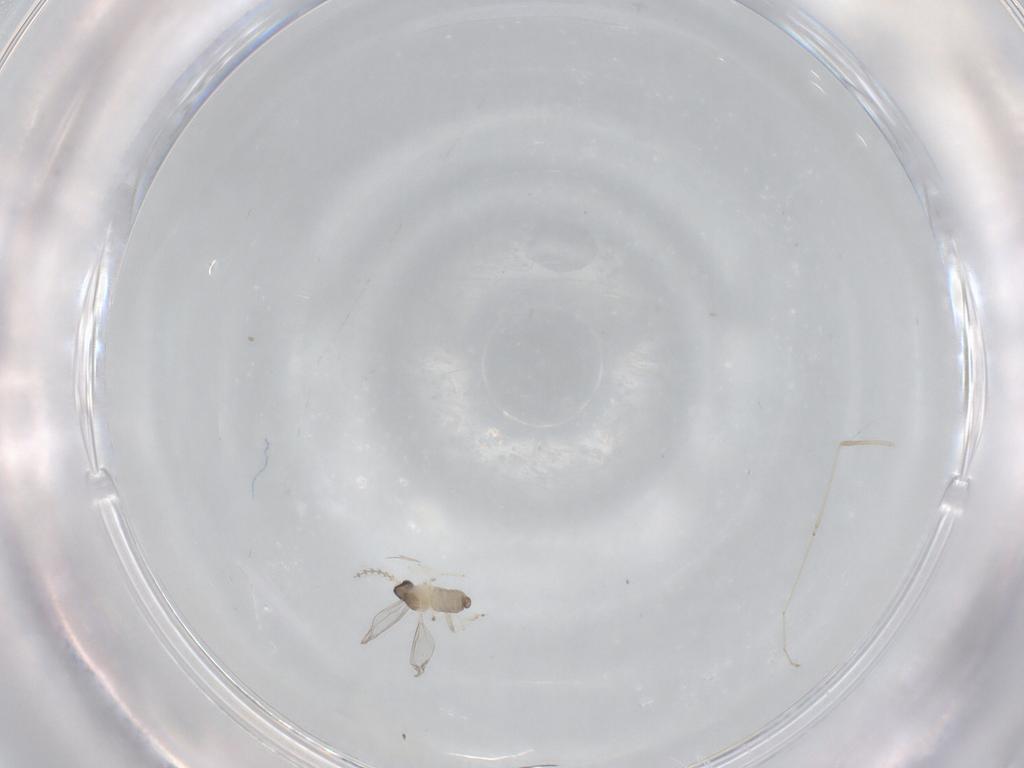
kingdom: Animalia
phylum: Arthropoda
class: Insecta
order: Diptera
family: Cecidomyiidae
